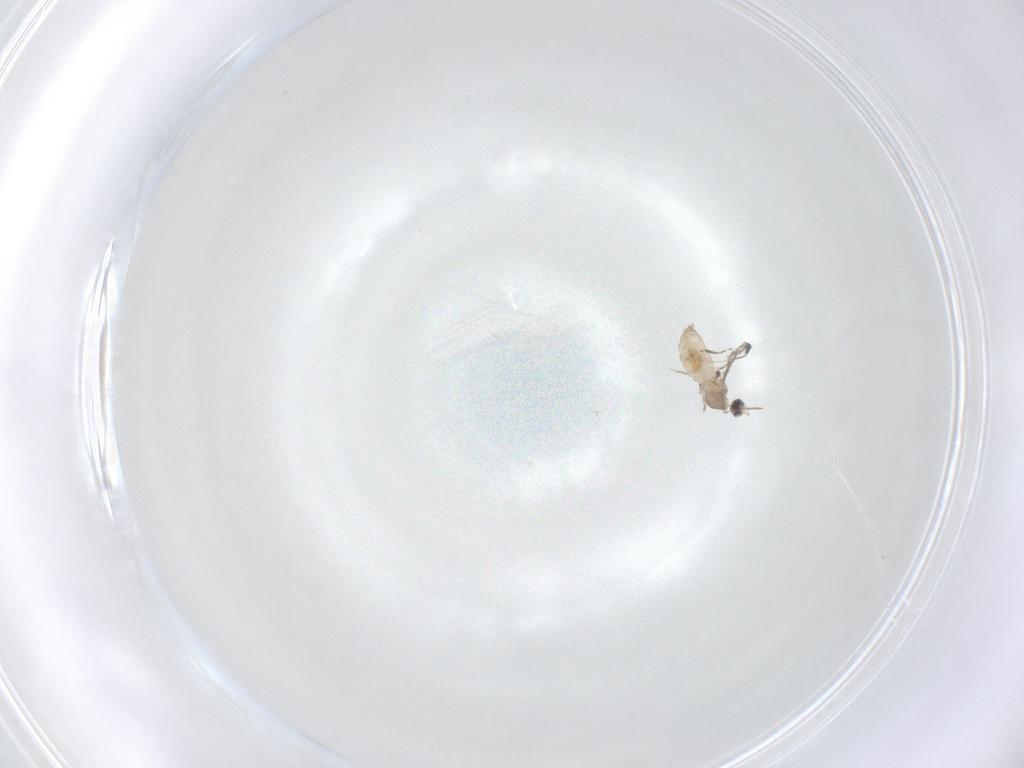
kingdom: Animalia
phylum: Arthropoda
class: Insecta
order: Diptera
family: Cecidomyiidae
